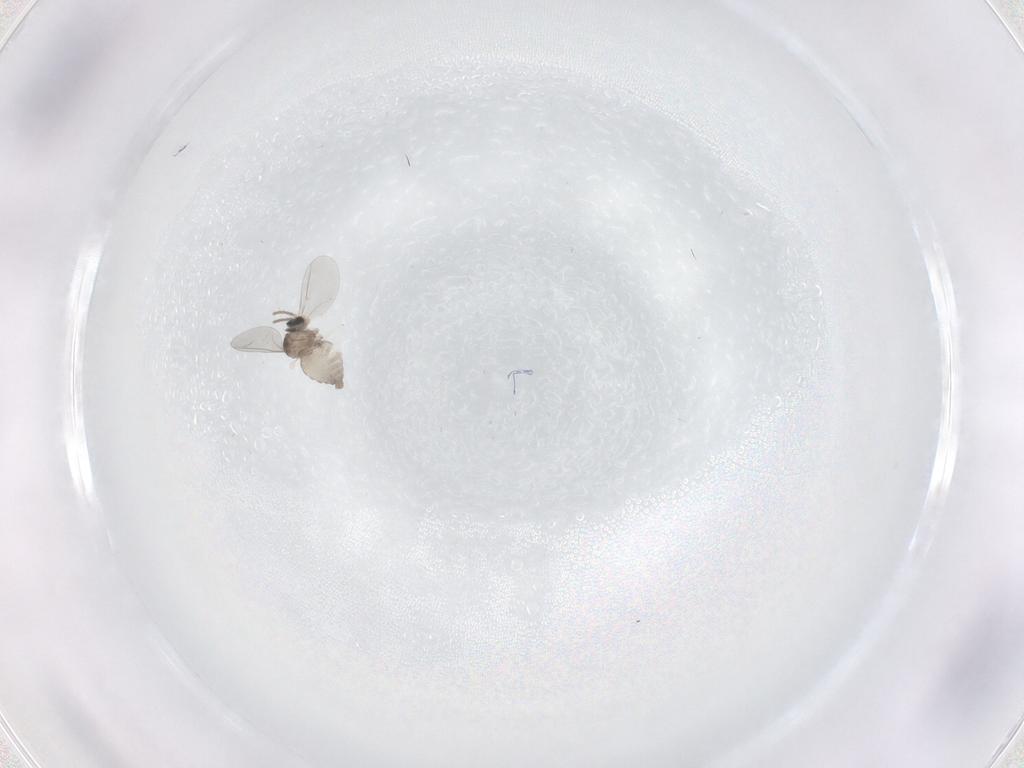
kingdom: Animalia
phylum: Arthropoda
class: Insecta
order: Diptera
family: Cecidomyiidae
